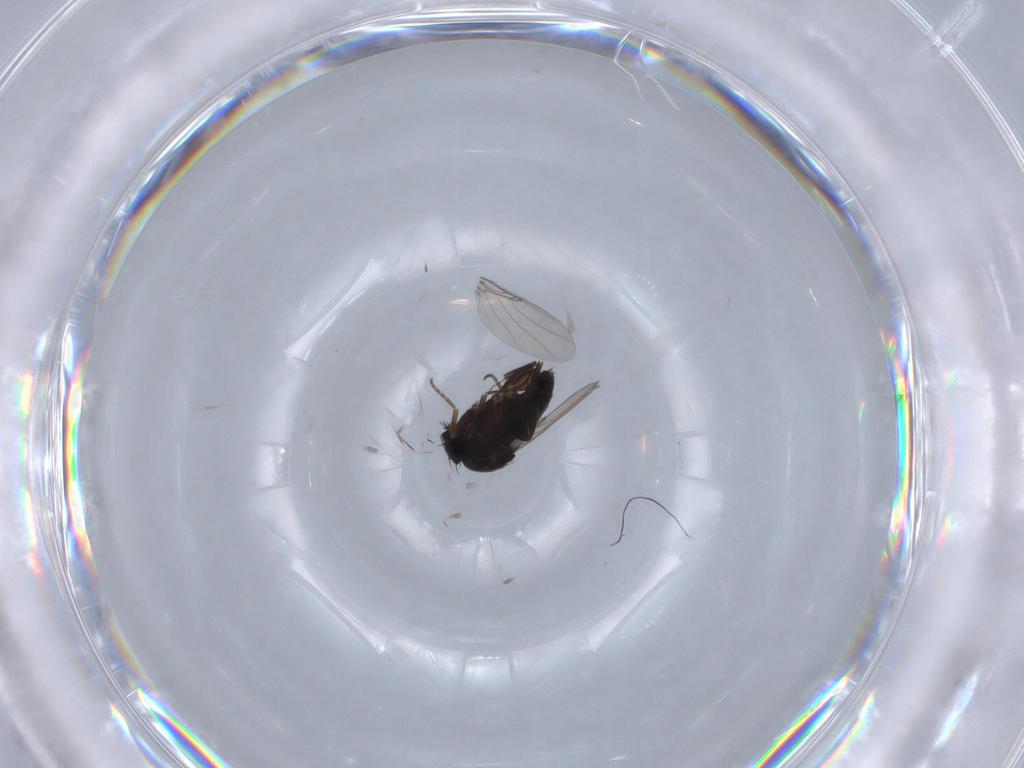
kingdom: Animalia
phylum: Arthropoda
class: Insecta
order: Diptera
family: Phoridae
